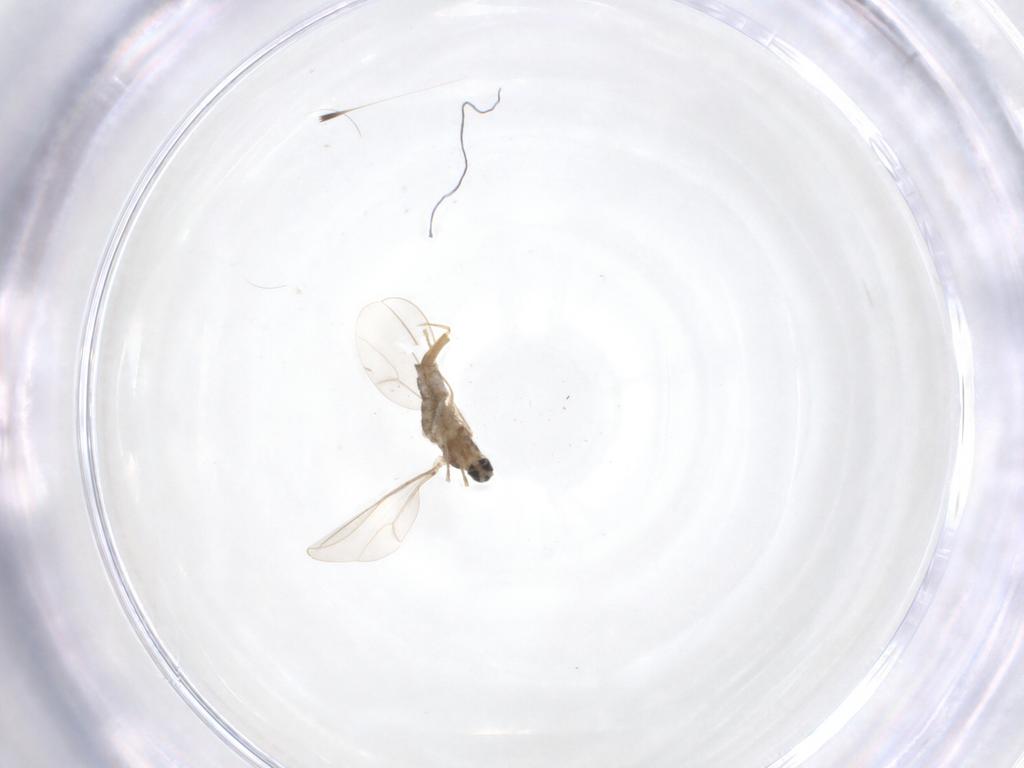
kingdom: Animalia
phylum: Arthropoda
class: Insecta
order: Diptera
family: Cecidomyiidae
